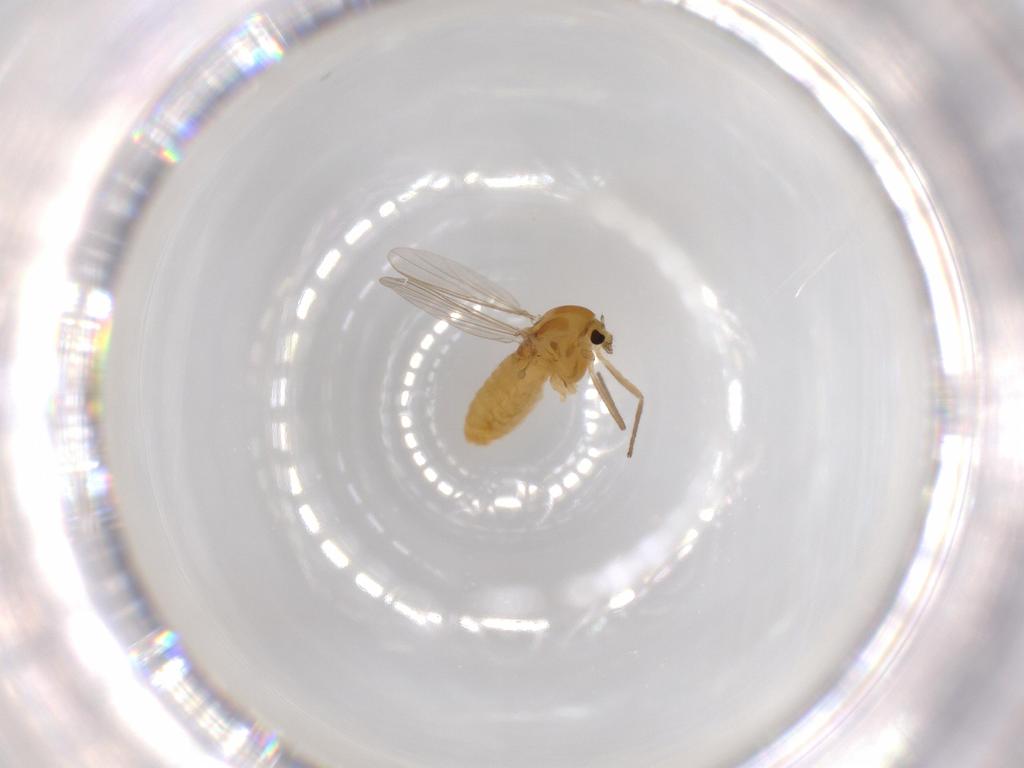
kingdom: Animalia
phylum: Arthropoda
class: Insecta
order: Diptera
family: Chironomidae
